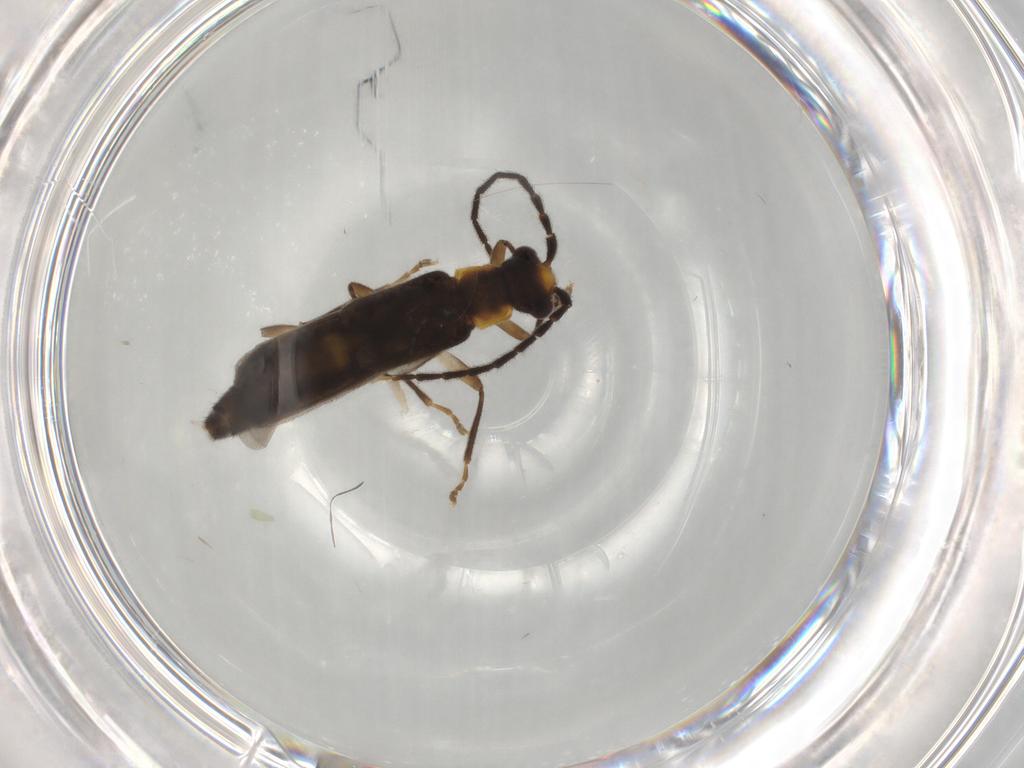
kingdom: Animalia
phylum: Arthropoda
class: Insecta
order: Coleoptera
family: Cantharidae
